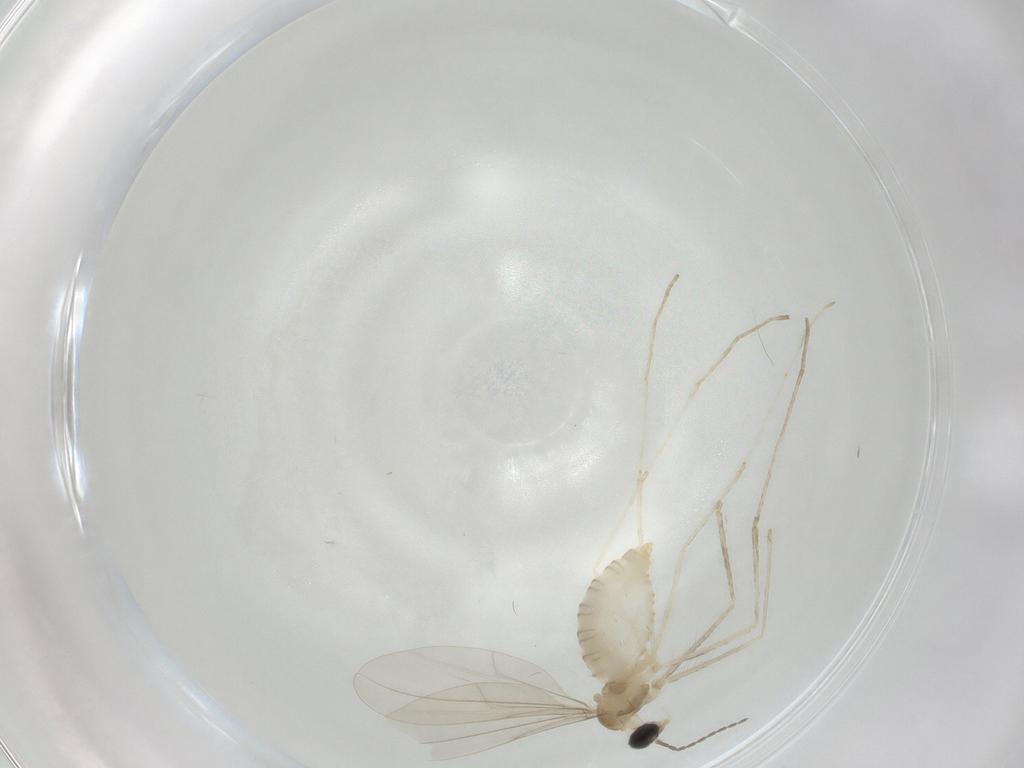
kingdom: Animalia
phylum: Arthropoda
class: Insecta
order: Diptera
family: Cecidomyiidae
